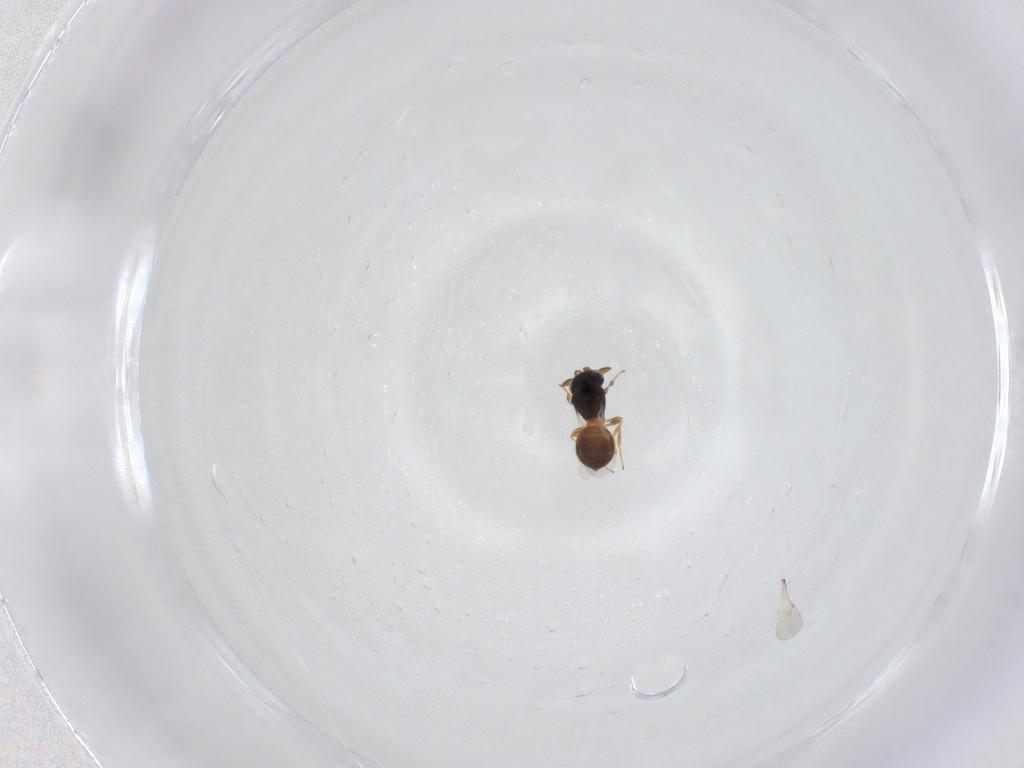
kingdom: Animalia
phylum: Arthropoda
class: Insecta
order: Hymenoptera
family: Scelionidae
